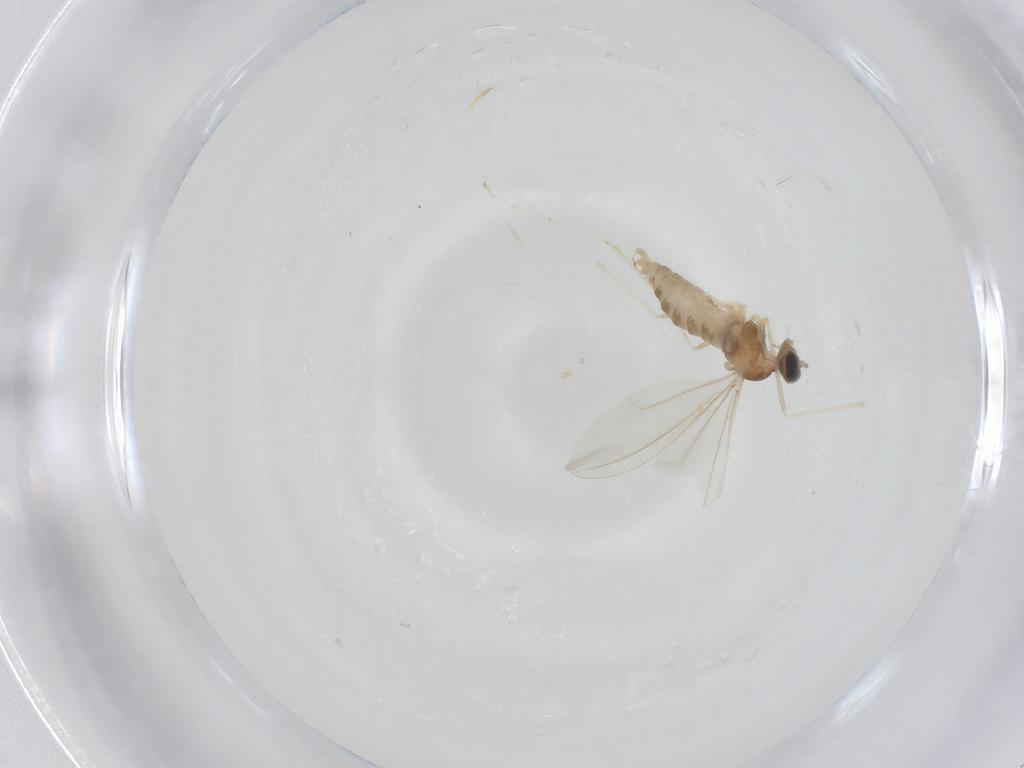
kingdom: Animalia
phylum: Arthropoda
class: Insecta
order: Diptera
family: Cecidomyiidae
